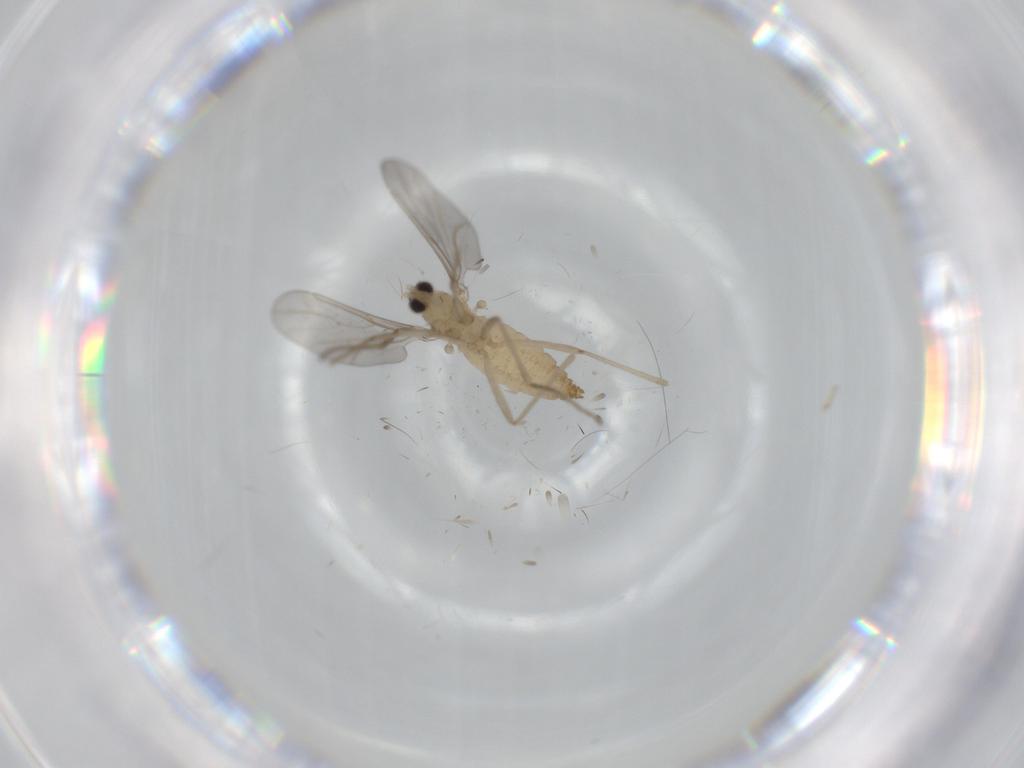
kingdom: Animalia
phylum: Arthropoda
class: Insecta
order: Diptera
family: Cecidomyiidae
